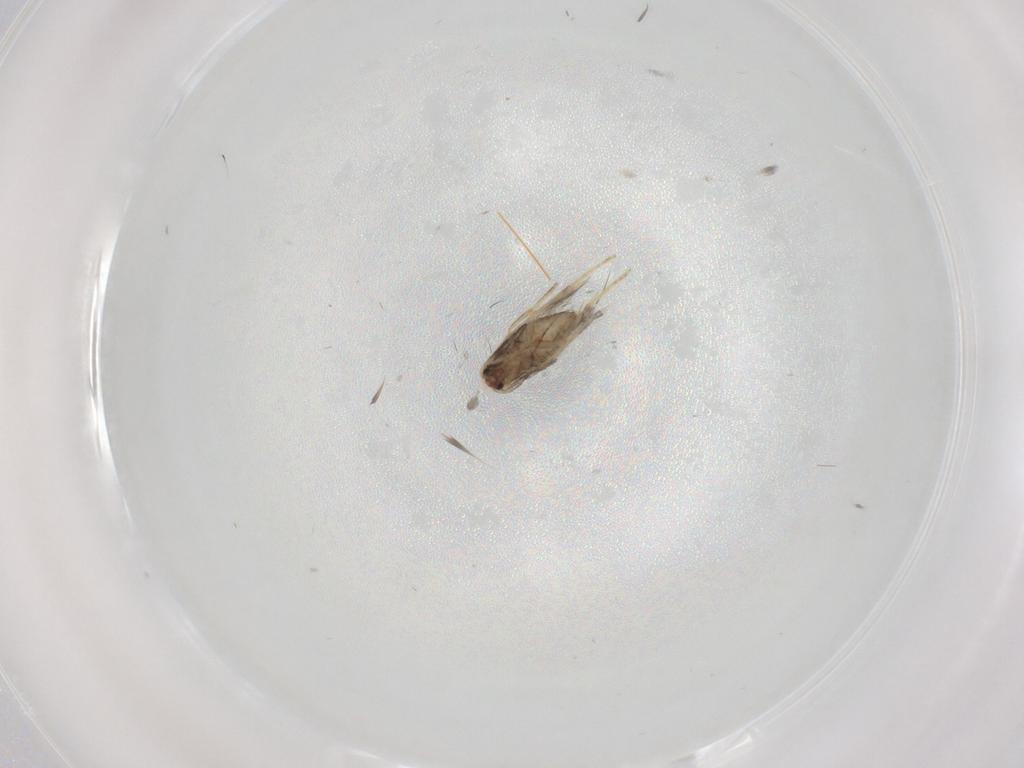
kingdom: Animalia
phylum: Arthropoda
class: Insecta
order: Lepidoptera
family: Nepticulidae
